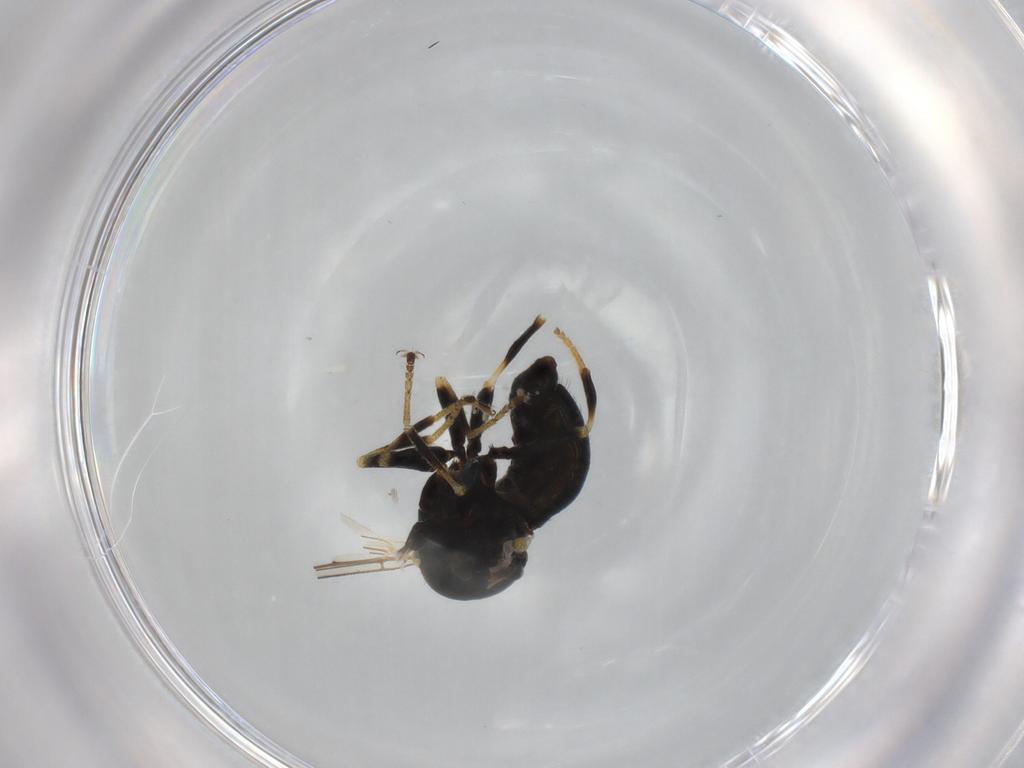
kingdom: Animalia
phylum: Arthropoda
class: Insecta
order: Diptera
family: Pipunculidae
